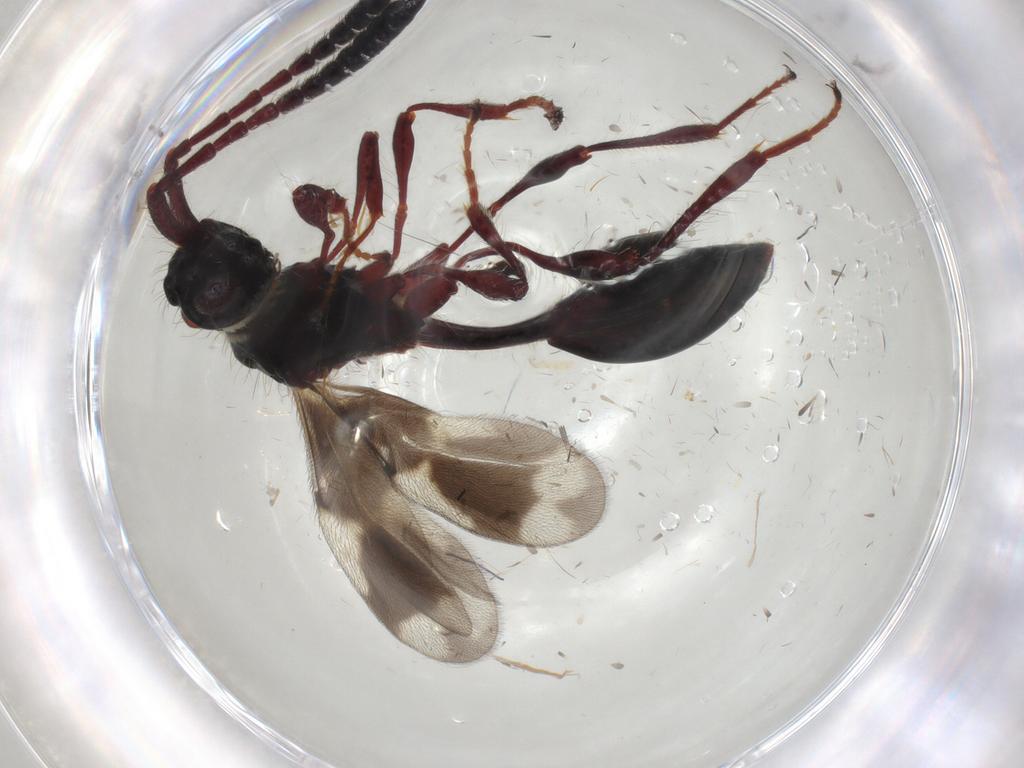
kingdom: Animalia
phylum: Arthropoda
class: Insecta
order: Hymenoptera
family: Diapriidae
